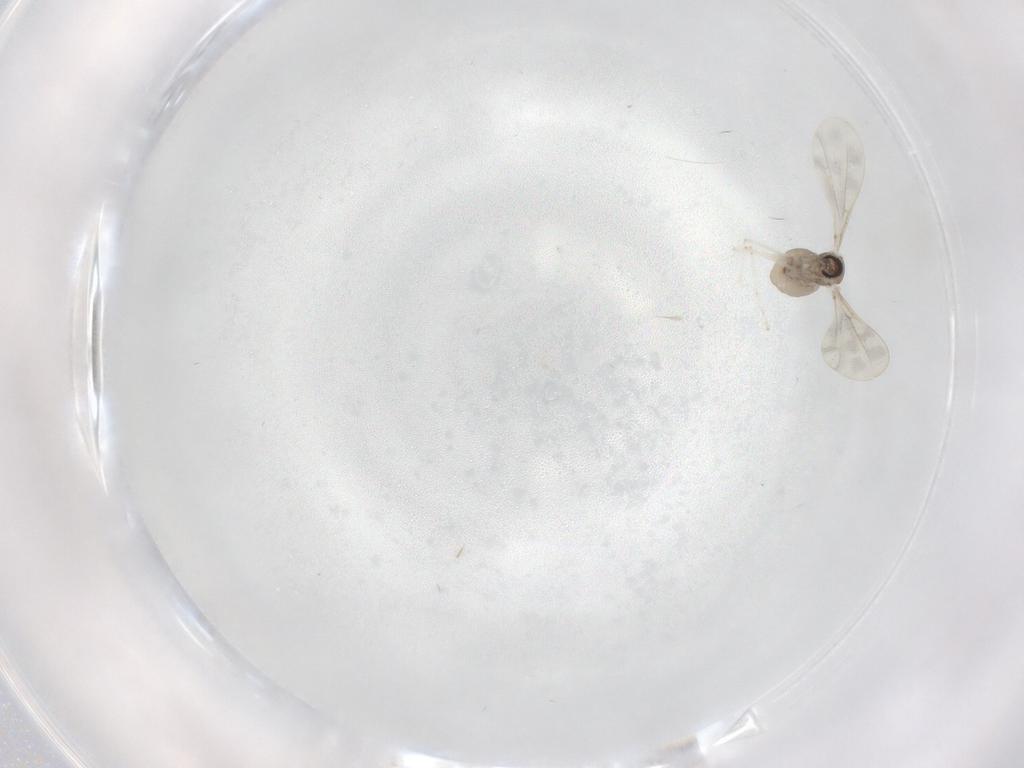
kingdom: Animalia
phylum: Arthropoda
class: Insecta
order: Diptera
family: Cecidomyiidae
